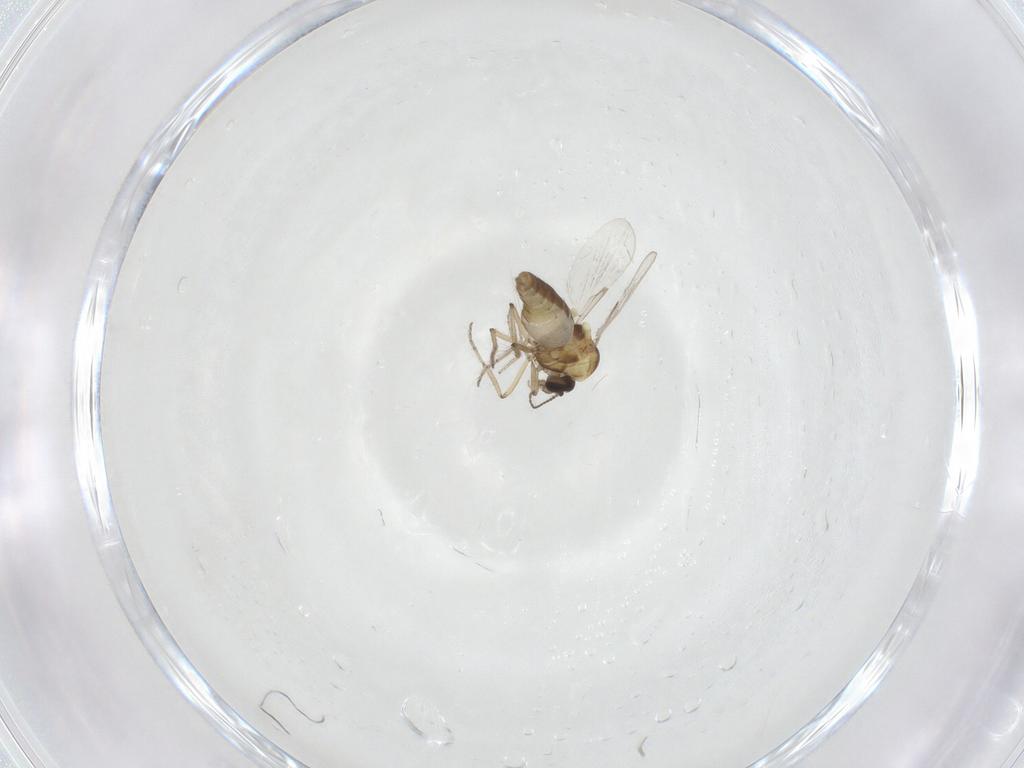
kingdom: Animalia
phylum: Arthropoda
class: Insecta
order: Diptera
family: Ceratopogonidae
